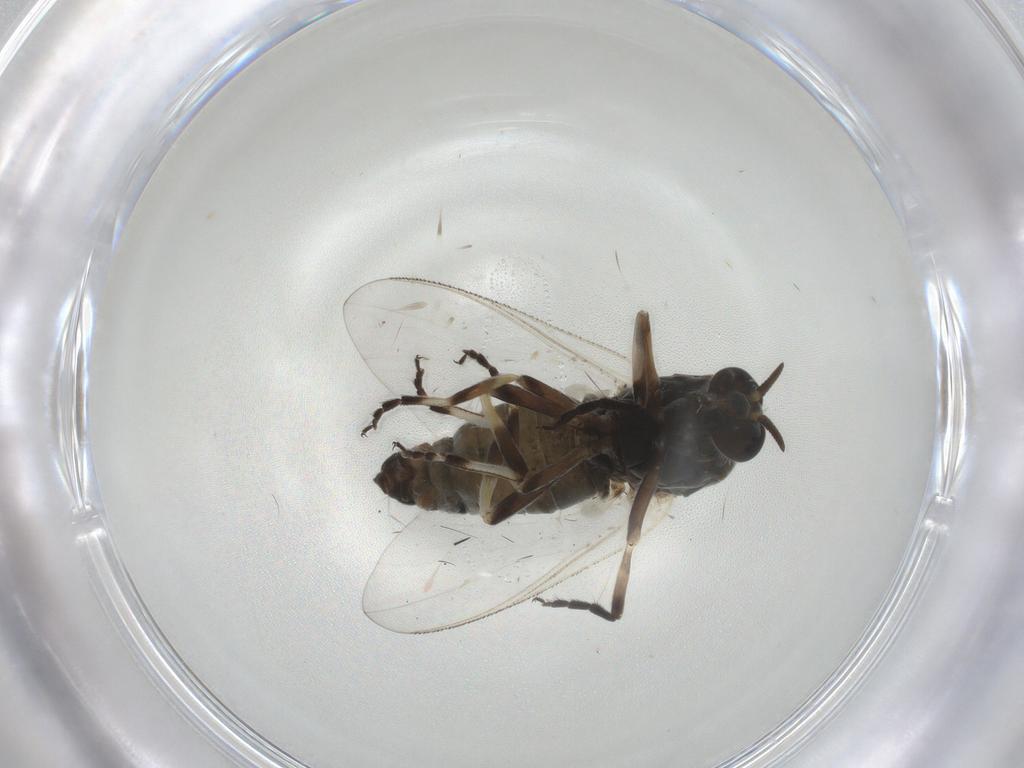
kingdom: Animalia
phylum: Arthropoda
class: Insecta
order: Diptera
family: Simuliidae
